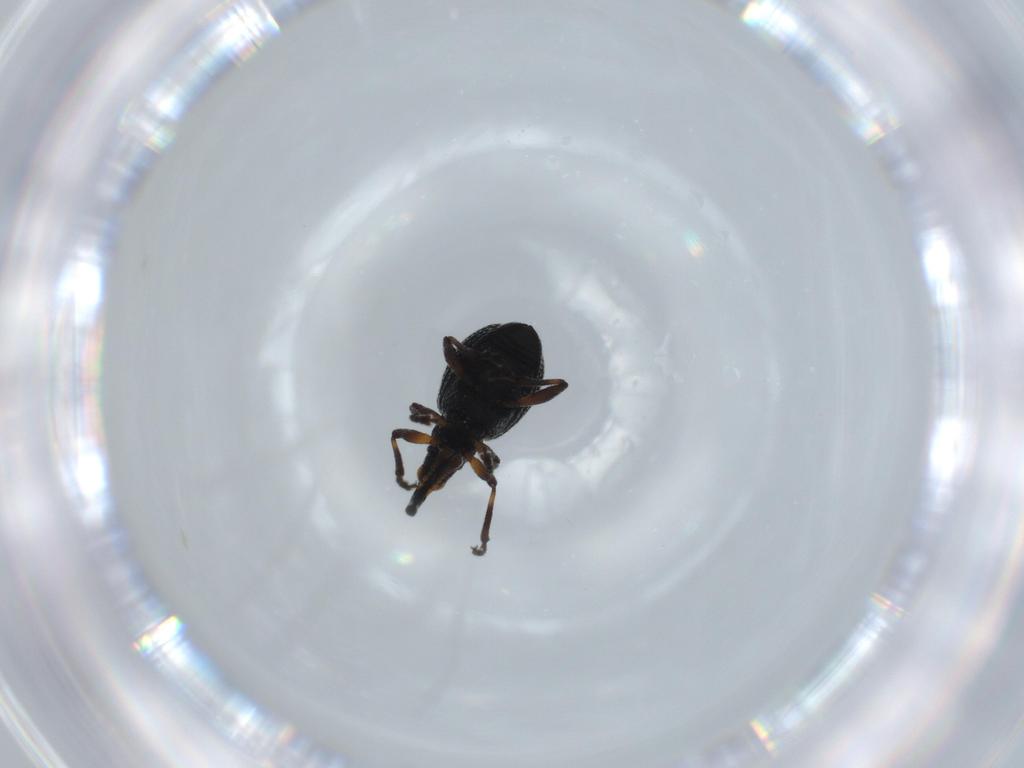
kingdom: Animalia
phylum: Arthropoda
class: Insecta
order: Coleoptera
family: Brentidae
